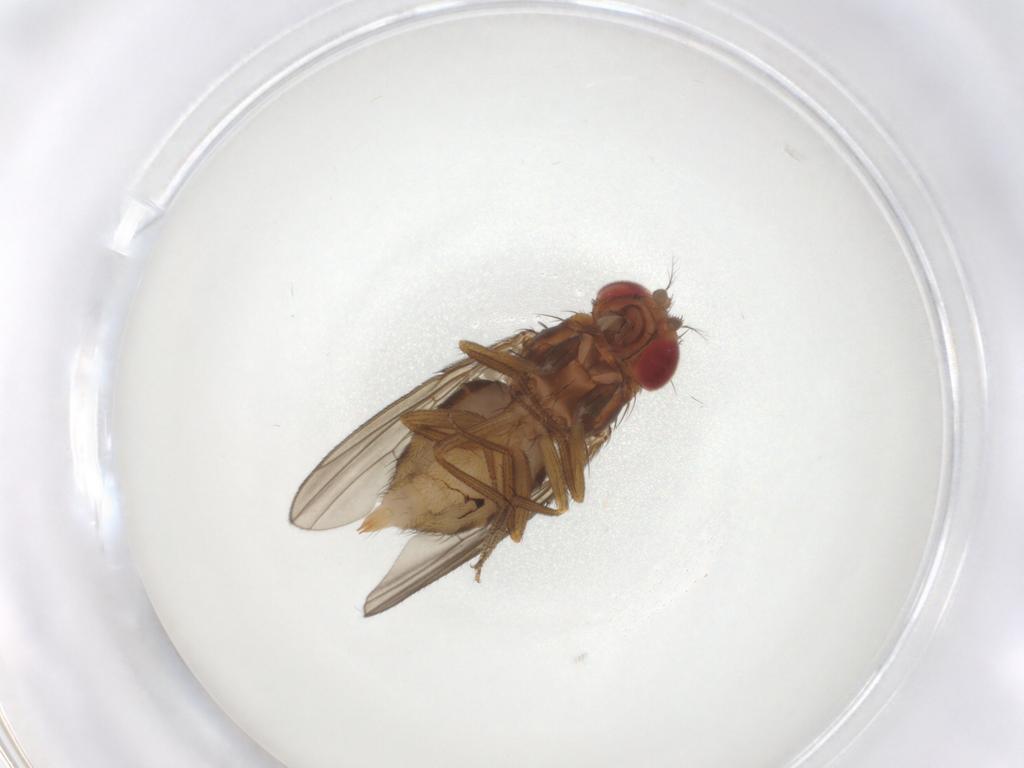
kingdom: Animalia
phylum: Arthropoda
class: Insecta
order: Diptera
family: Drosophilidae
